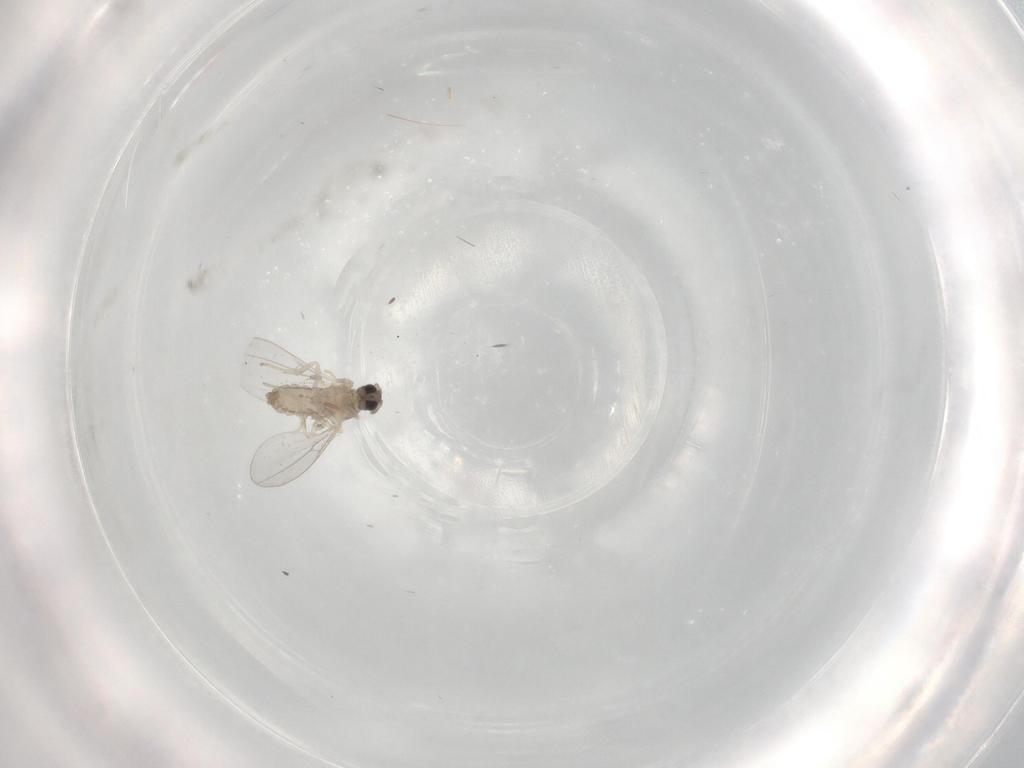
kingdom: Animalia
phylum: Arthropoda
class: Insecta
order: Diptera
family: Cecidomyiidae
